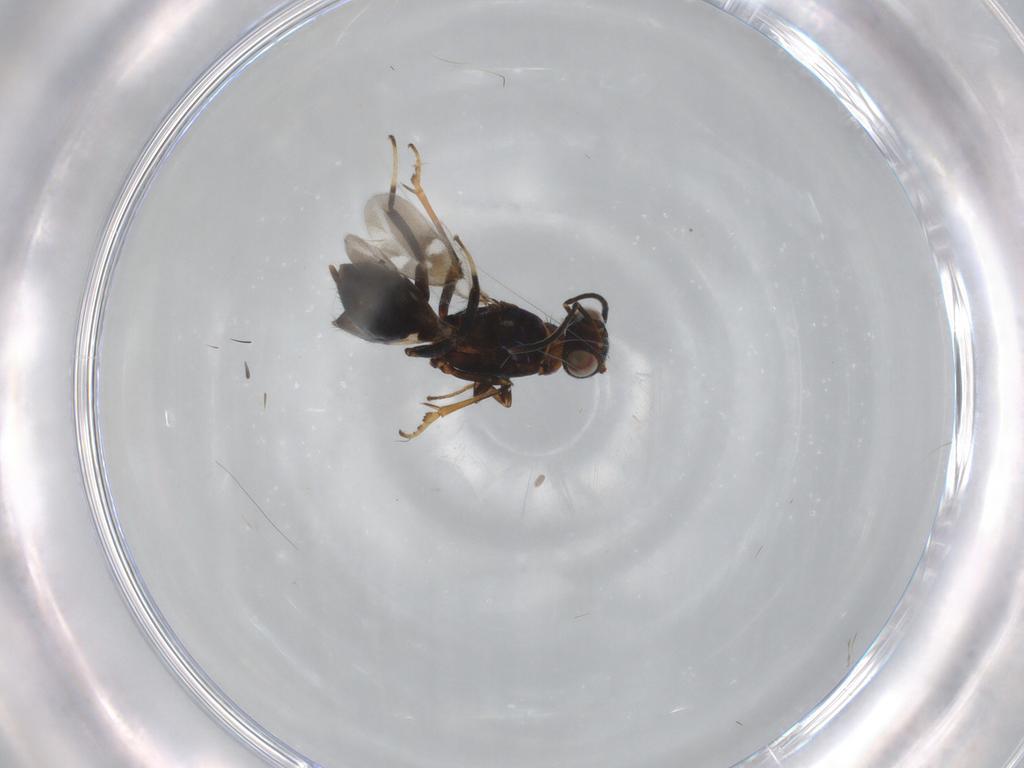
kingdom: Animalia
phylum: Arthropoda
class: Insecta
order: Hymenoptera
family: Eupelmidae
